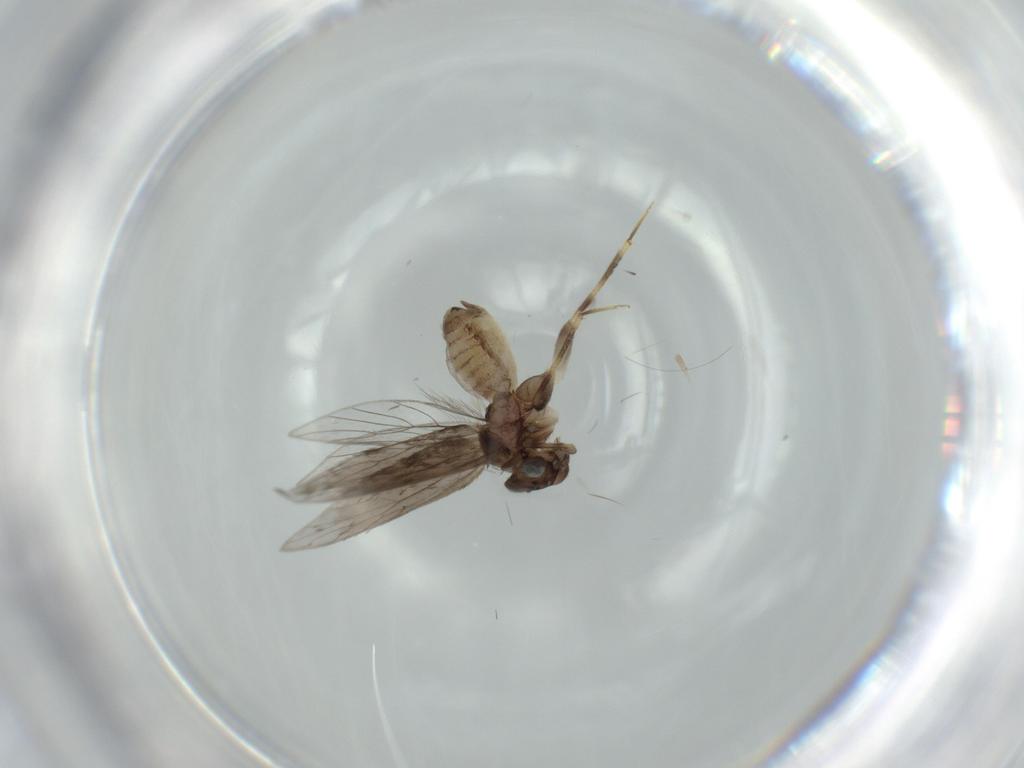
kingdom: Animalia
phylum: Arthropoda
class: Insecta
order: Psocodea
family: Lepidopsocidae
